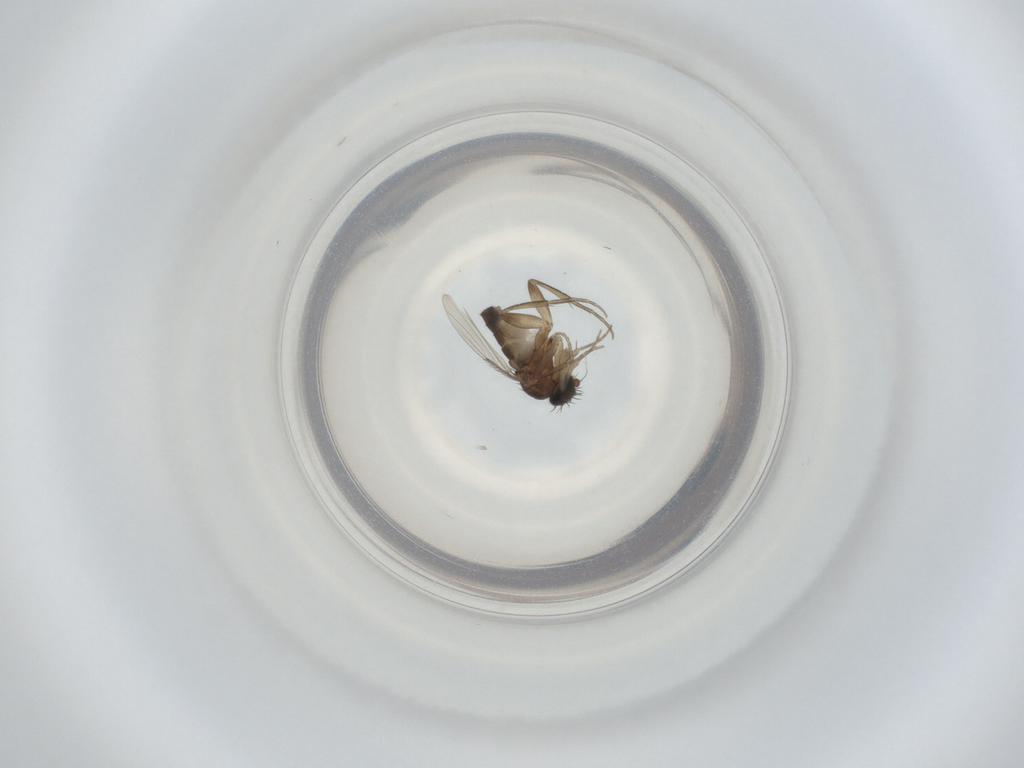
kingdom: Animalia
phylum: Arthropoda
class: Insecta
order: Diptera
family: Phoridae
